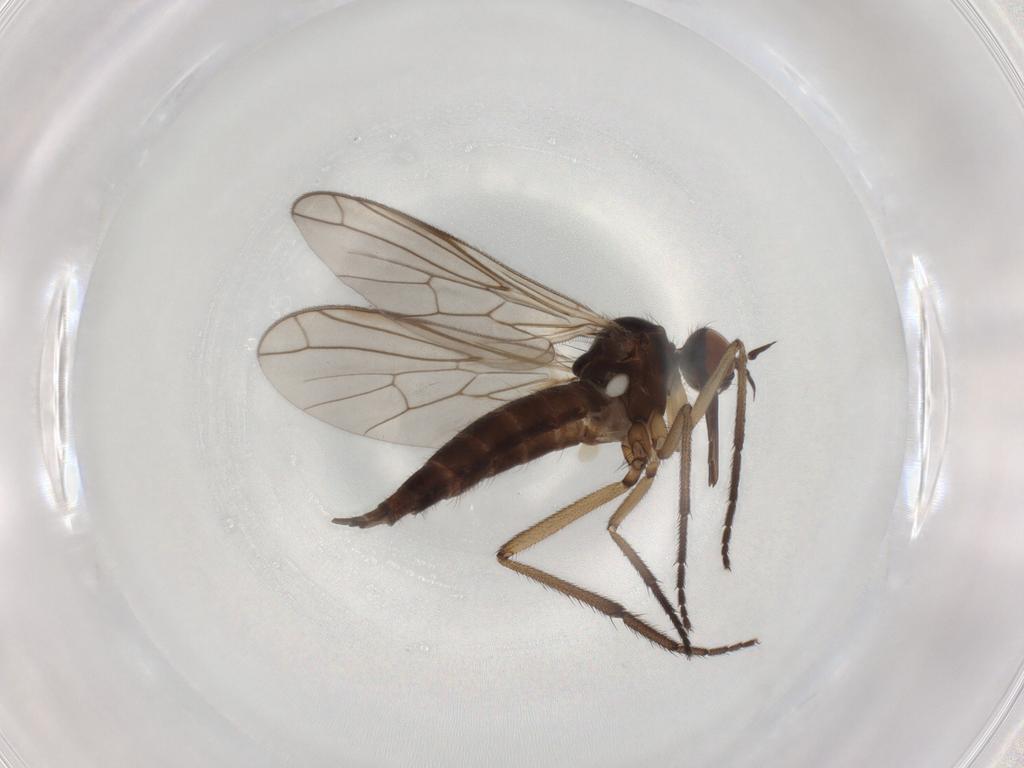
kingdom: Animalia
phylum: Arthropoda
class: Insecta
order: Diptera
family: Empididae
